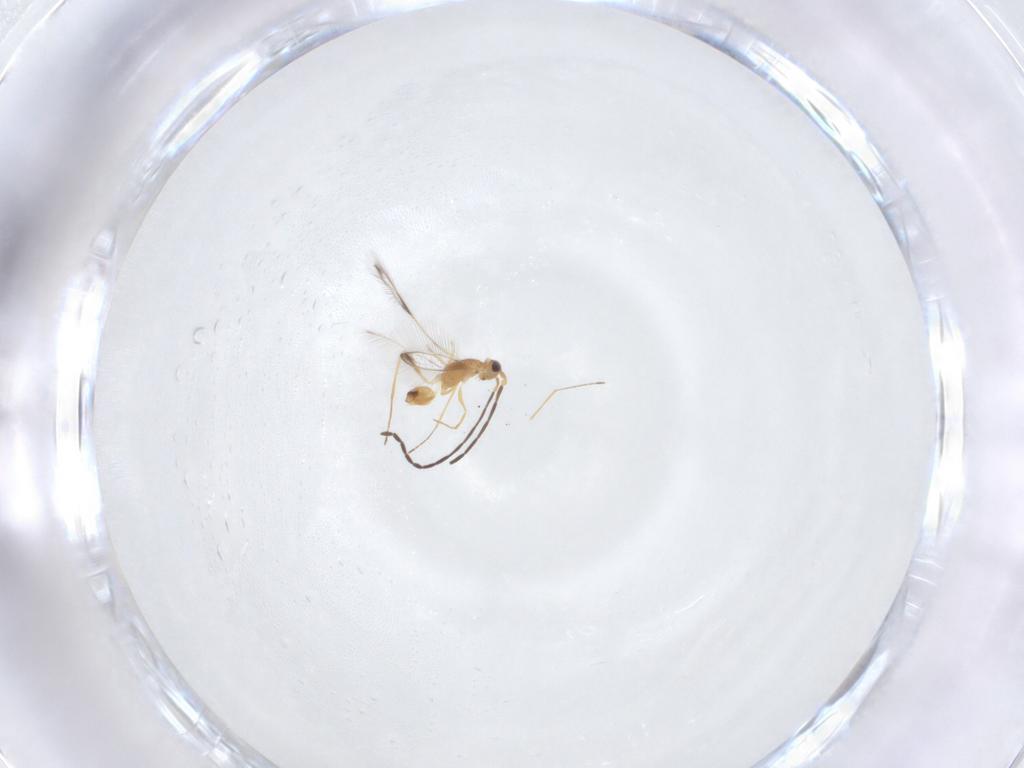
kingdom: Animalia
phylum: Arthropoda
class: Insecta
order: Hymenoptera
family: Mymaridae
